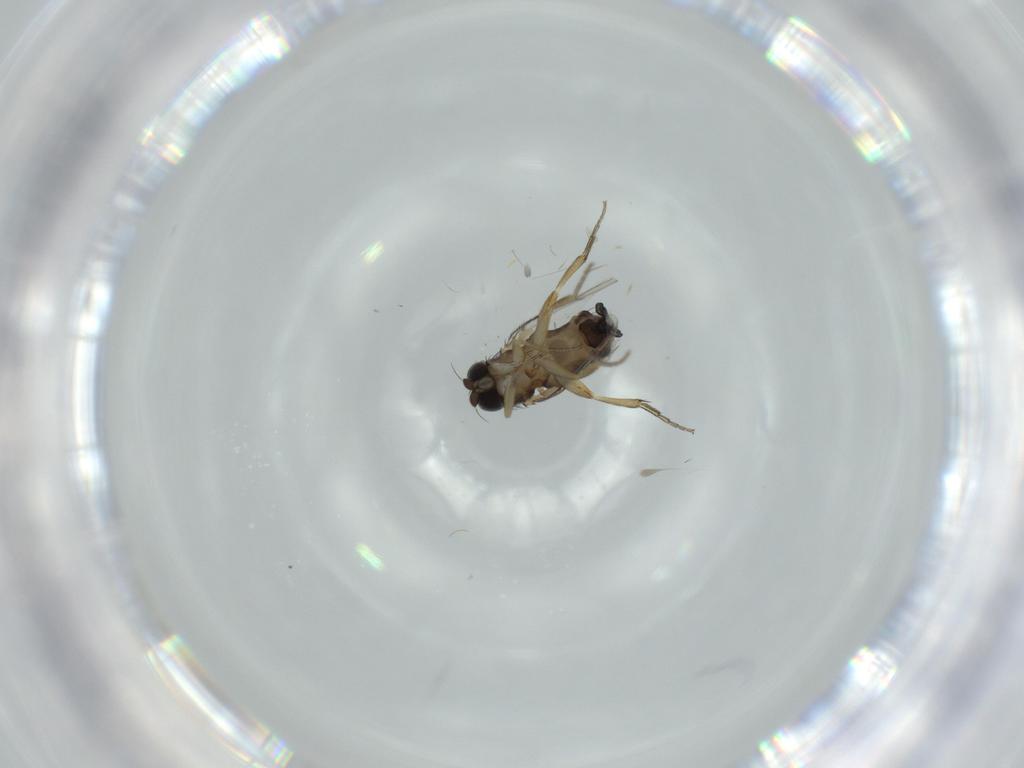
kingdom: Animalia
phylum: Arthropoda
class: Insecta
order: Diptera
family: Phoridae
